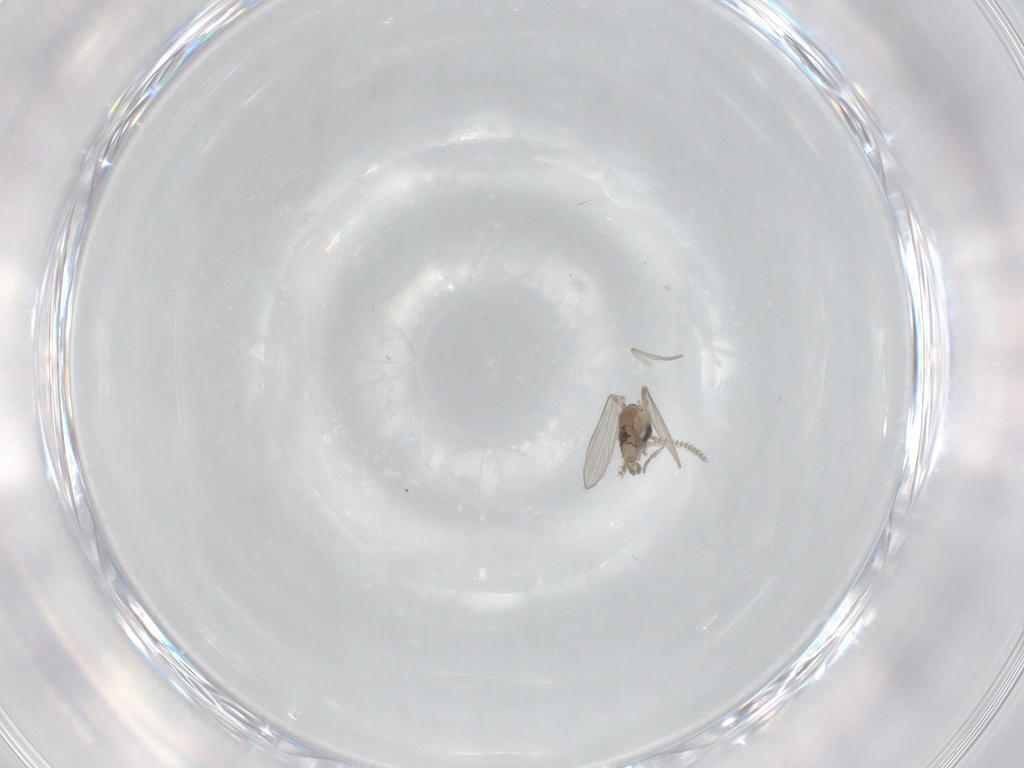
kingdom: Animalia
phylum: Arthropoda
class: Insecta
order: Diptera
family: Psychodidae
